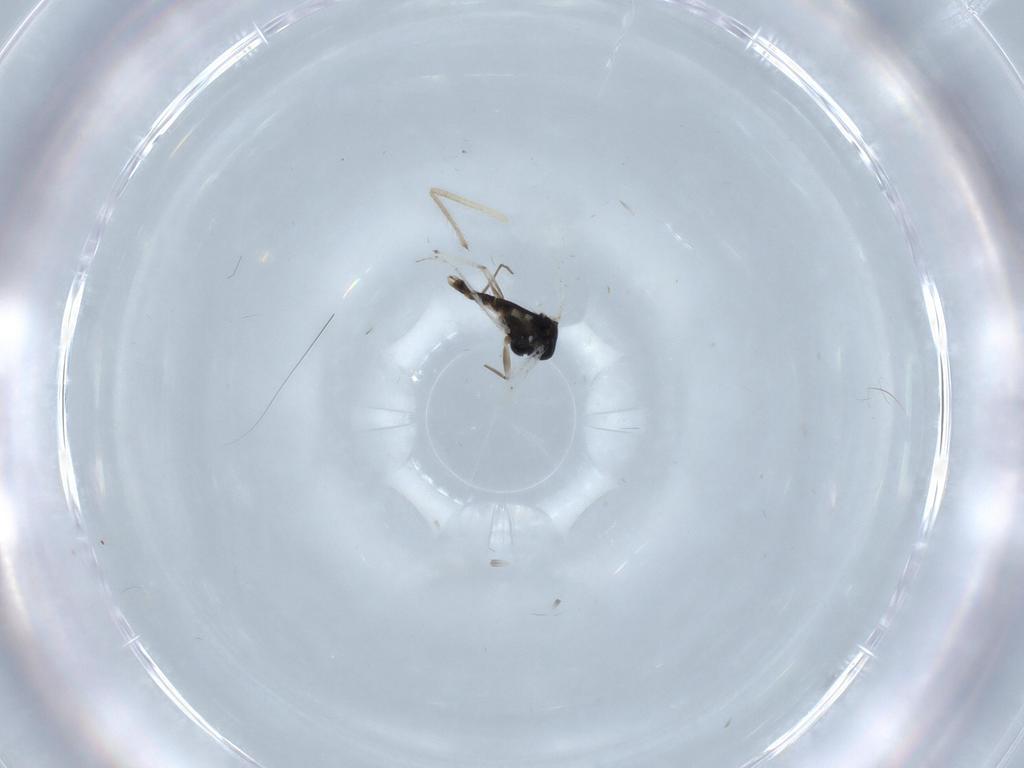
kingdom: Animalia
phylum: Arthropoda
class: Insecta
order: Diptera
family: Chironomidae
